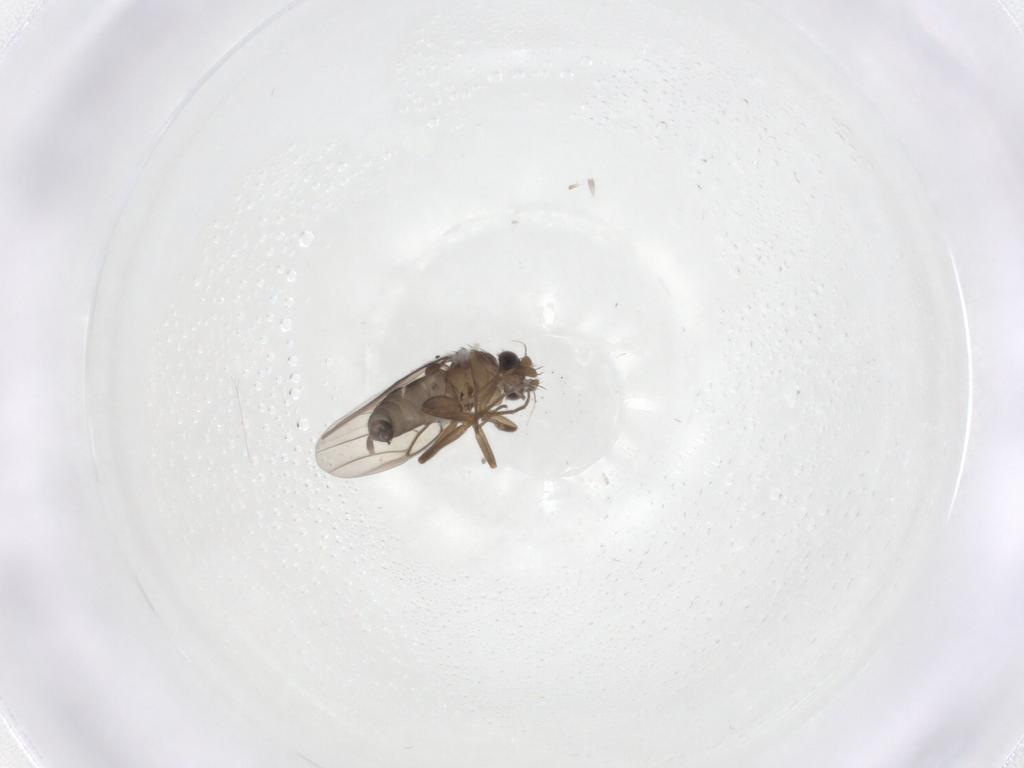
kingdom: Animalia
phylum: Arthropoda
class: Insecta
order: Diptera
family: Phoridae
